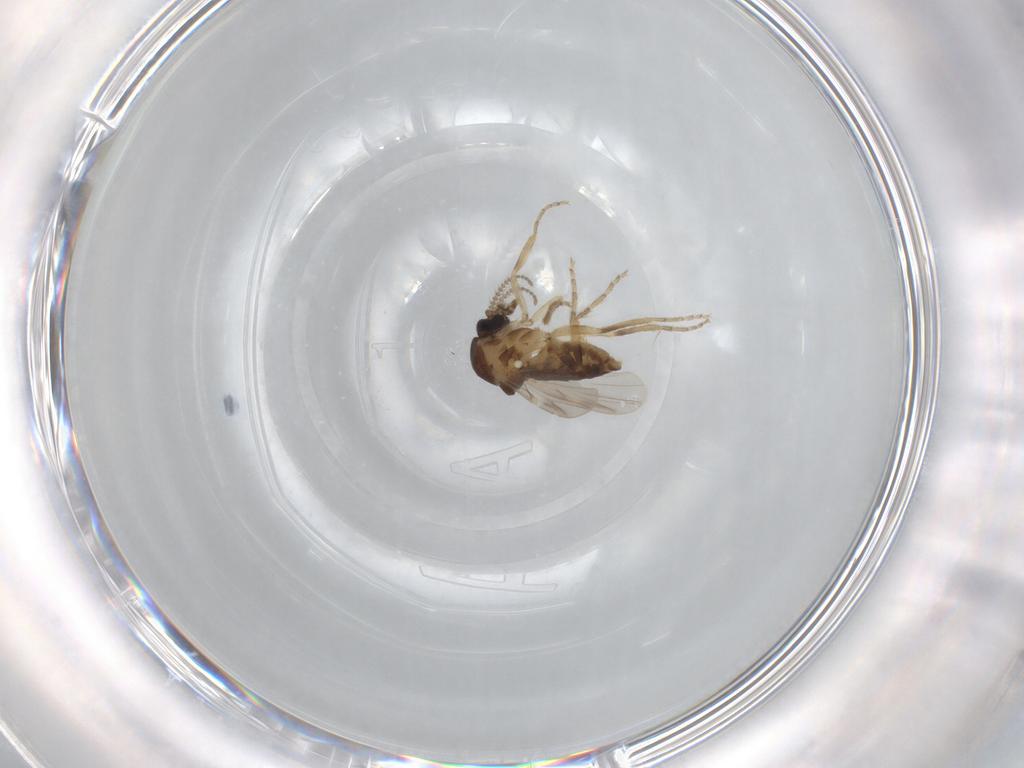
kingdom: Animalia
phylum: Arthropoda
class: Insecta
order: Diptera
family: Ceratopogonidae
